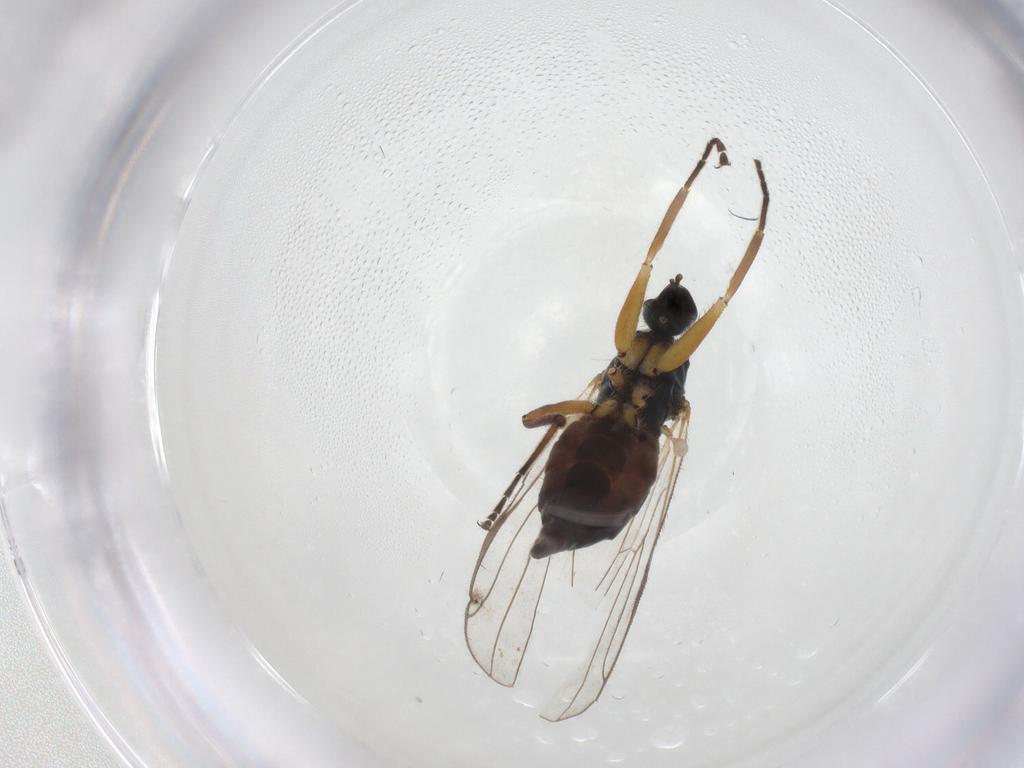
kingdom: Animalia
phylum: Arthropoda
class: Insecta
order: Diptera
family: Hybotidae
